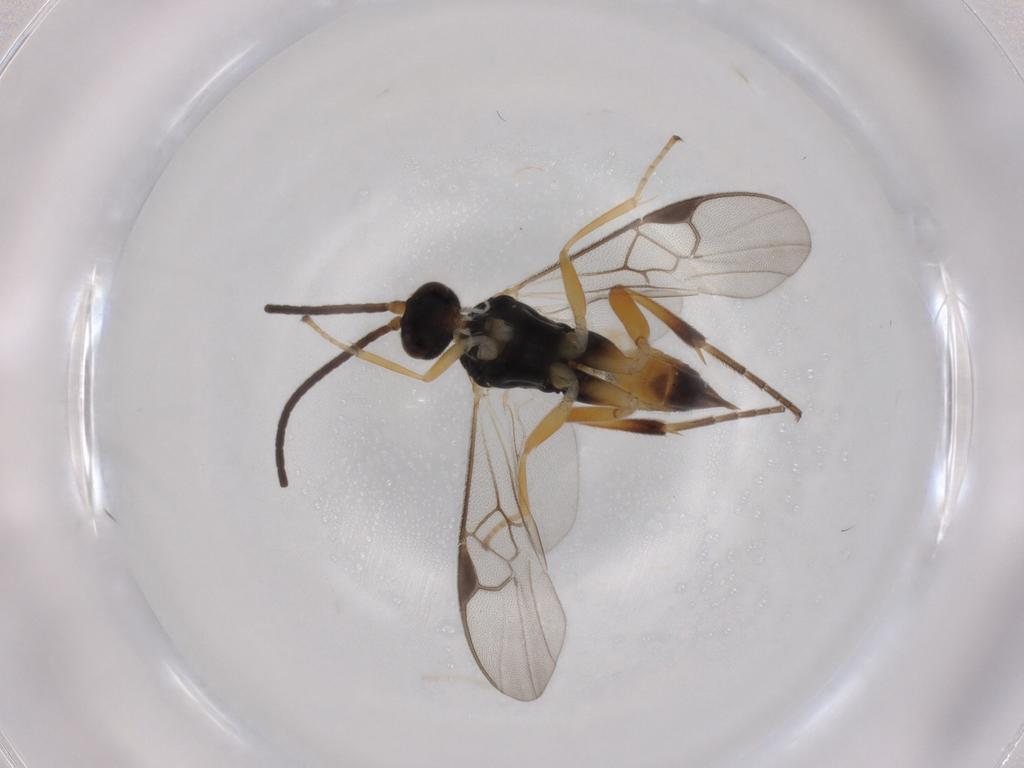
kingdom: Animalia
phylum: Arthropoda
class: Insecta
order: Hymenoptera
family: Braconidae
